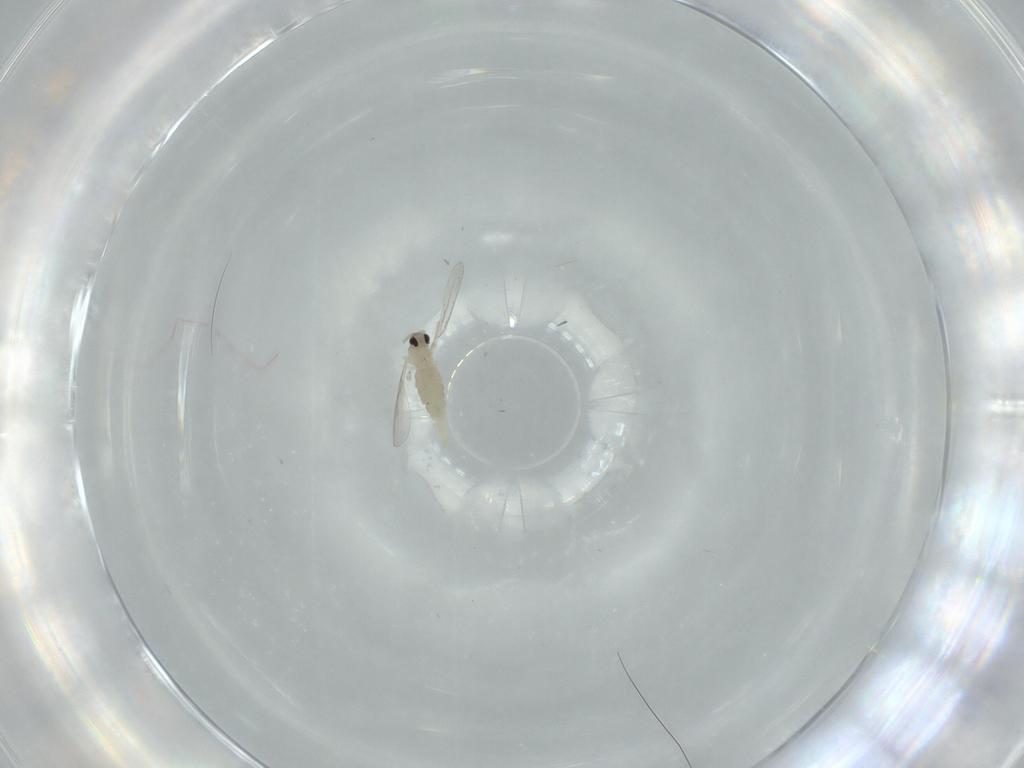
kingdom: Animalia
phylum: Arthropoda
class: Insecta
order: Diptera
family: Cecidomyiidae
